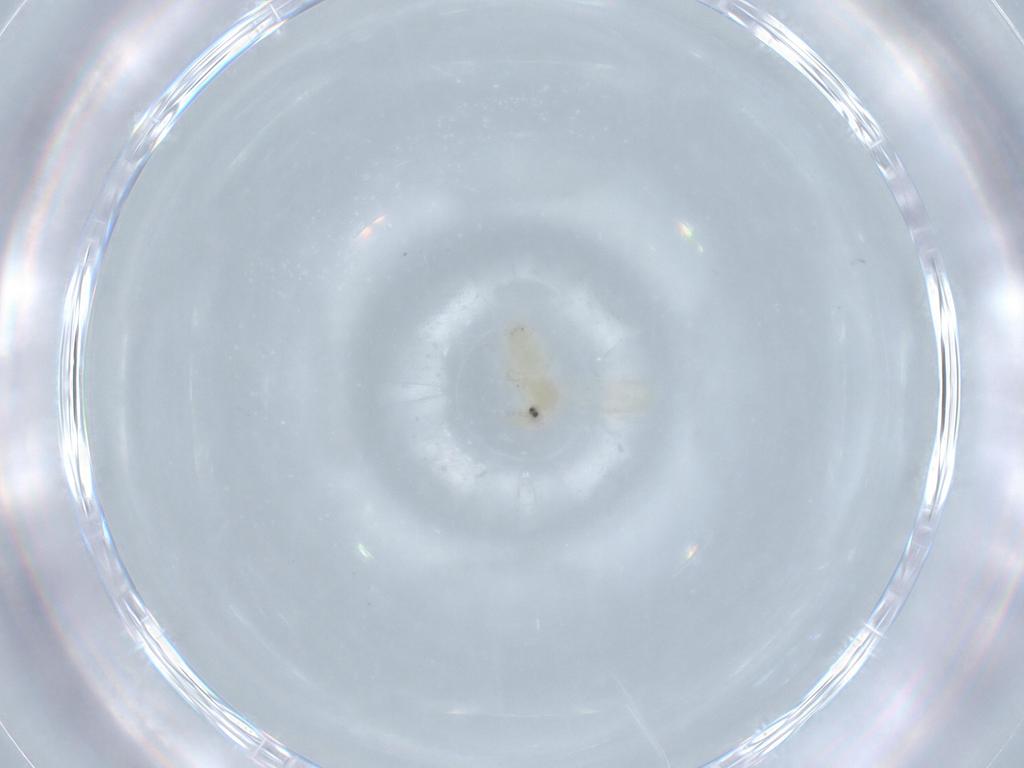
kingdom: Animalia
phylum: Arthropoda
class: Insecta
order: Hemiptera
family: Aleyrodidae
